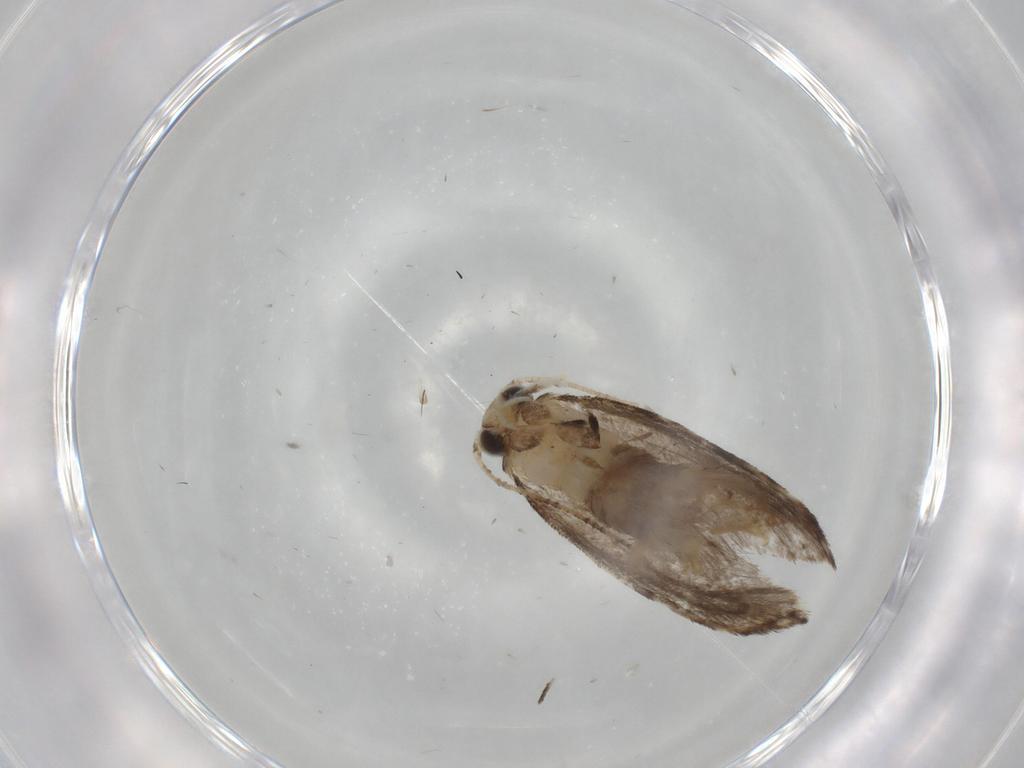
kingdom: Animalia
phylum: Arthropoda
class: Insecta
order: Lepidoptera
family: Tineidae
